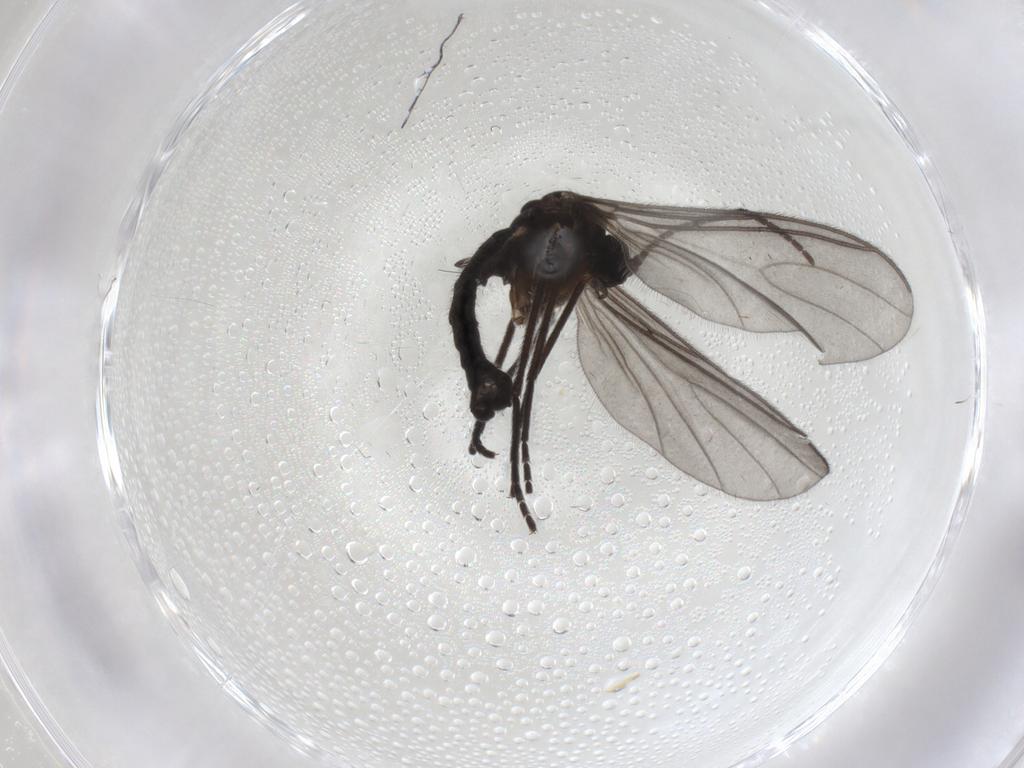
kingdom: Animalia
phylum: Arthropoda
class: Insecta
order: Diptera
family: Sciaridae
